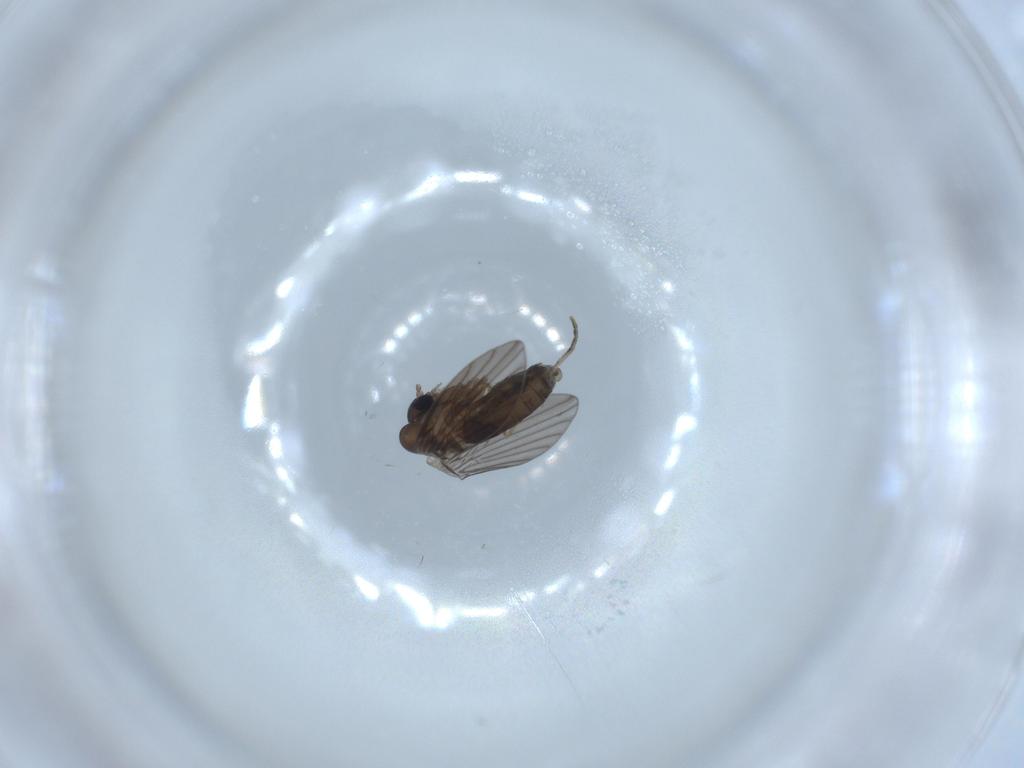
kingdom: Animalia
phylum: Arthropoda
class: Insecta
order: Diptera
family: Psychodidae
